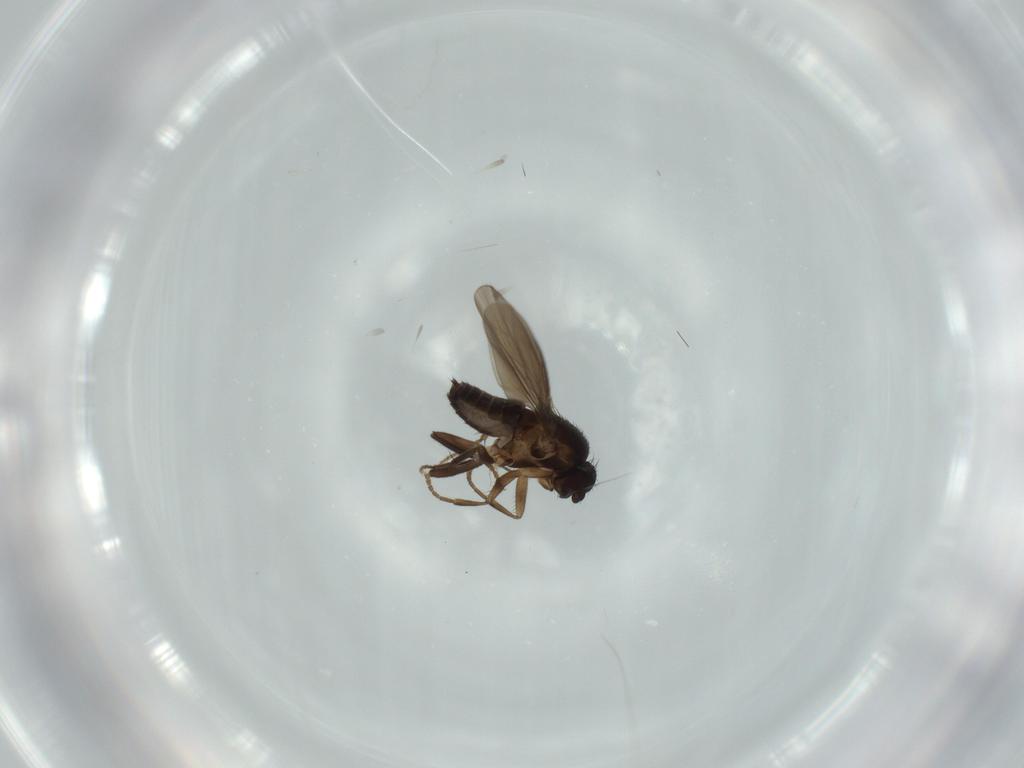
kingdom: Animalia
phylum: Arthropoda
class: Insecta
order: Diptera
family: Sphaeroceridae
